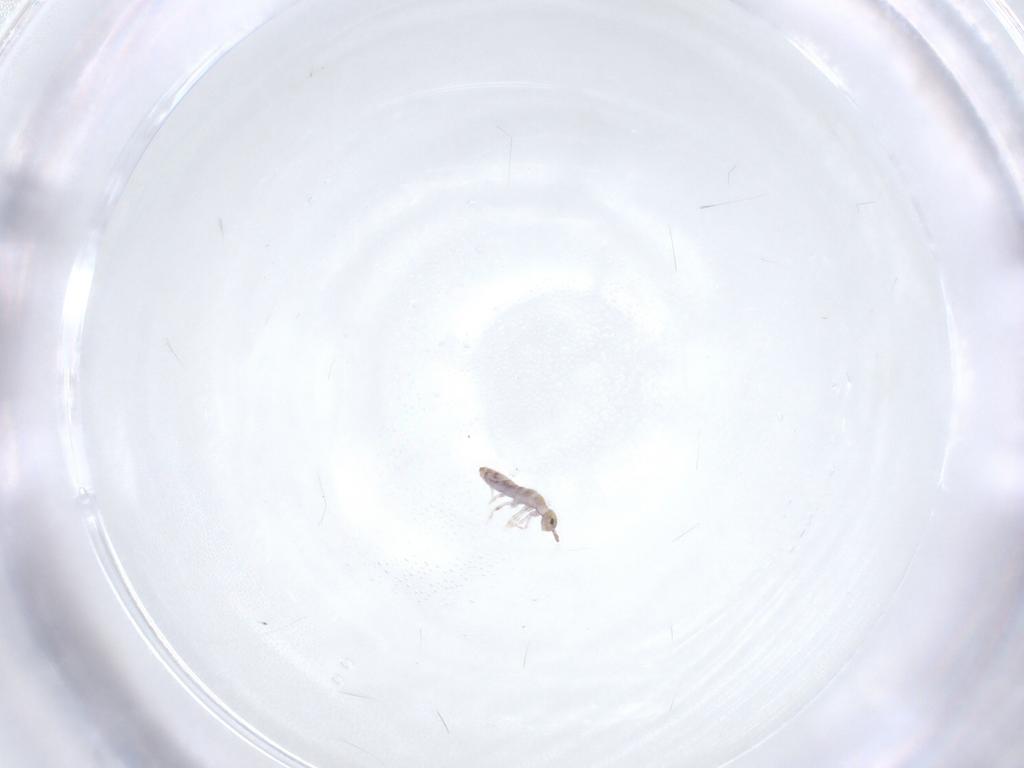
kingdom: Animalia
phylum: Arthropoda
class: Collembola
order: Entomobryomorpha
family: Entomobryidae
